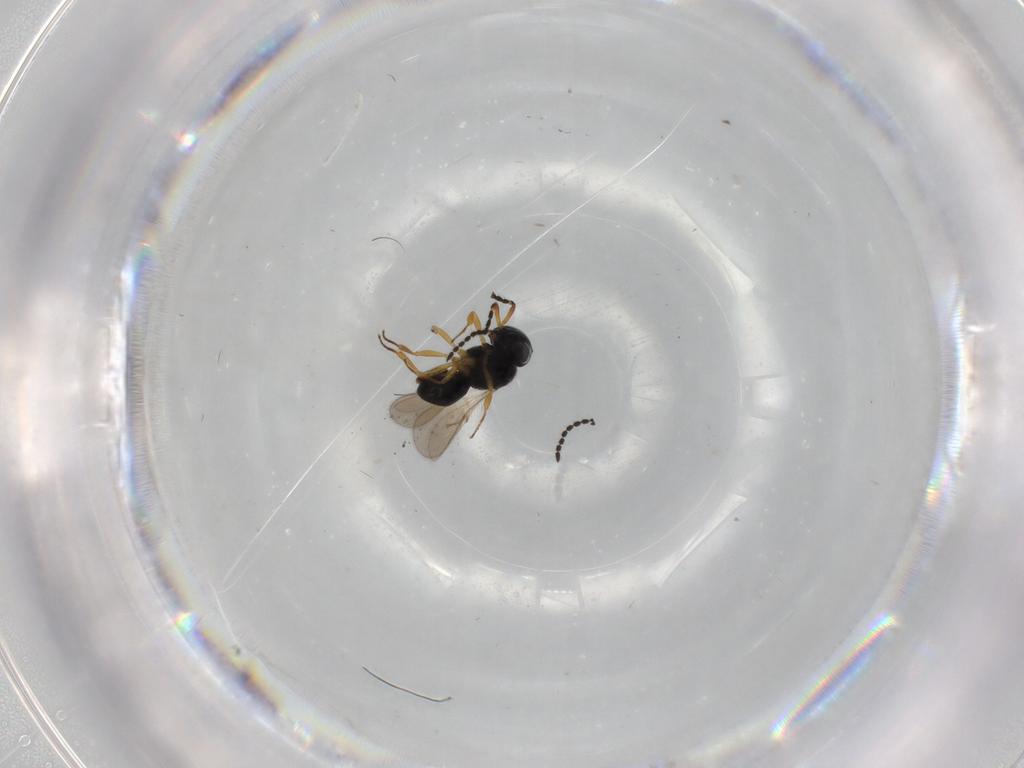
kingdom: Animalia
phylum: Arthropoda
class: Insecta
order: Hymenoptera
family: Scelionidae
